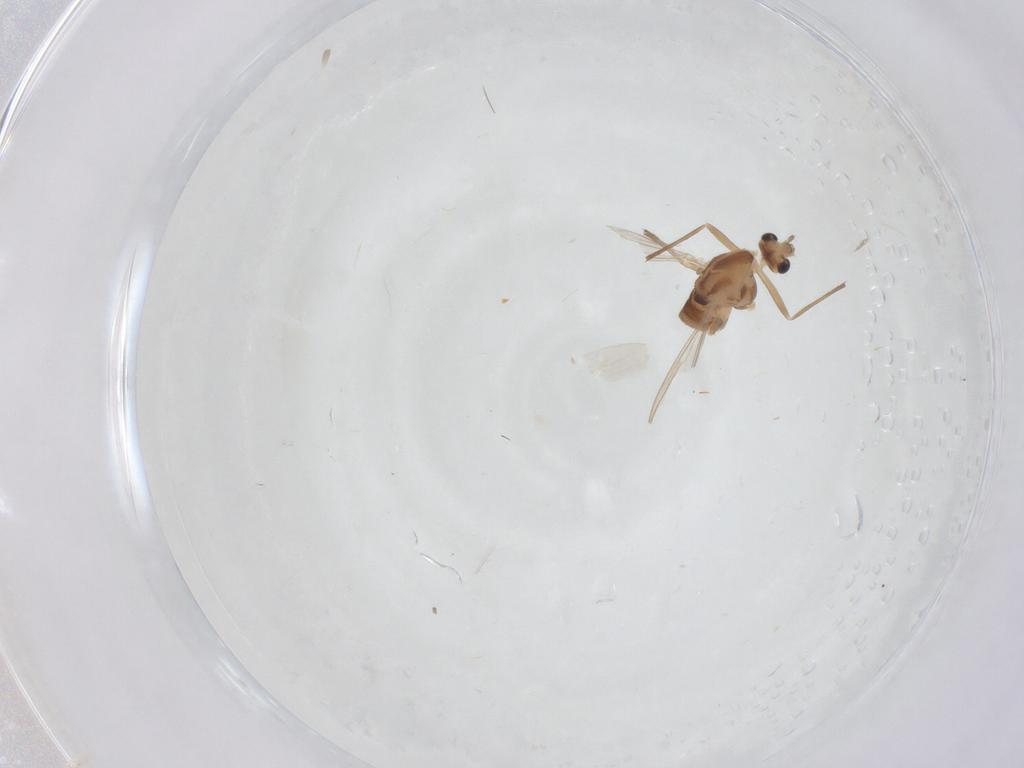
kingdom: Animalia
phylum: Arthropoda
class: Insecta
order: Diptera
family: Chironomidae
